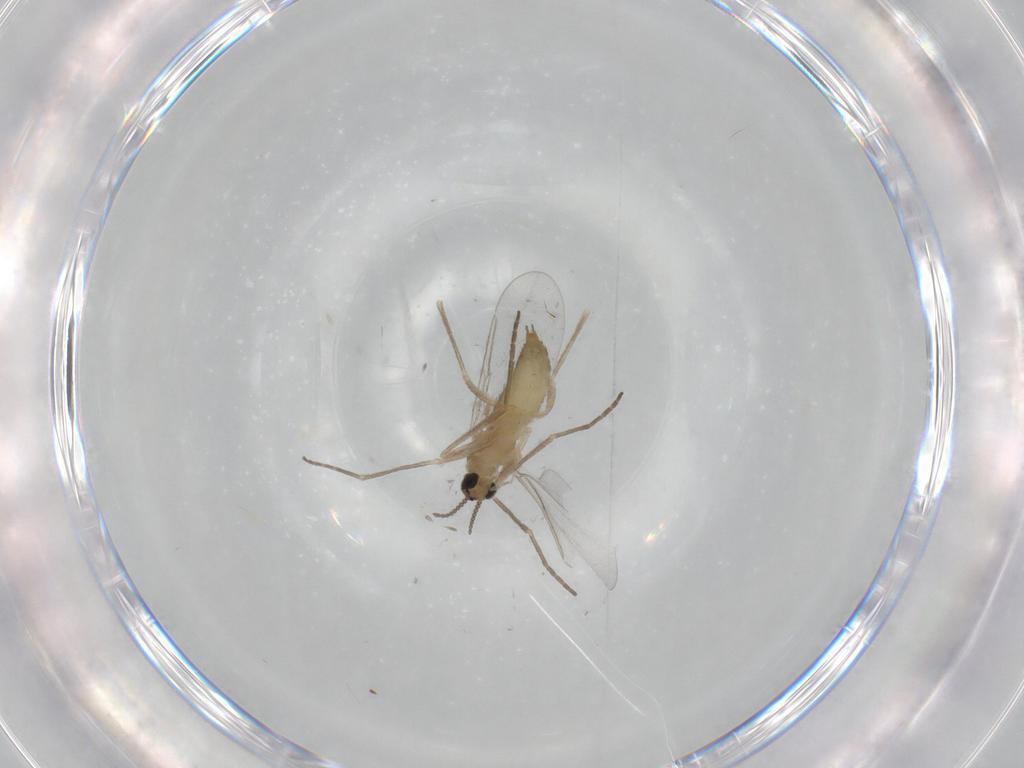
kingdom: Animalia
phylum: Arthropoda
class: Insecta
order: Diptera
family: Cecidomyiidae
